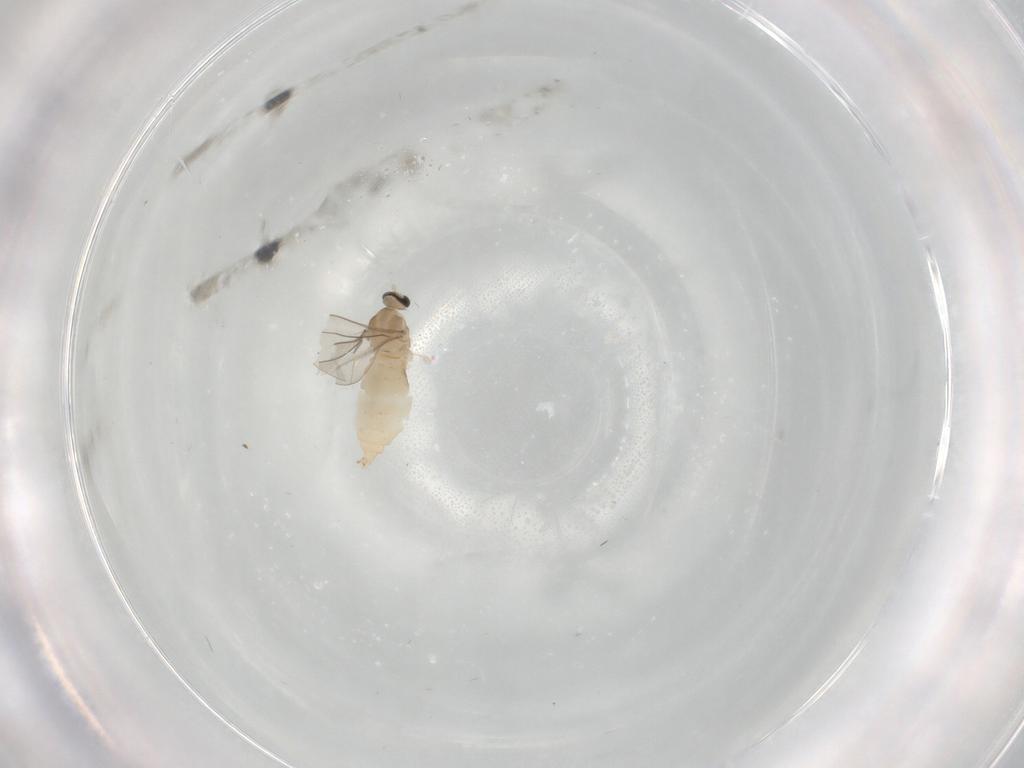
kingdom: Animalia
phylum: Arthropoda
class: Insecta
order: Diptera
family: Cecidomyiidae
